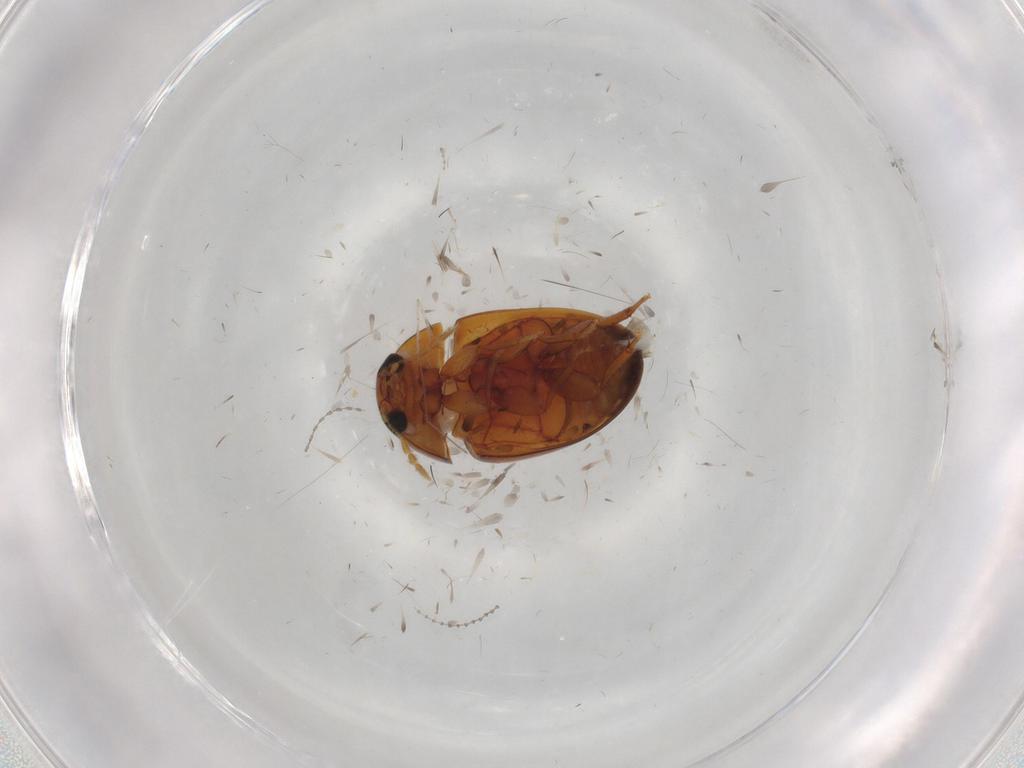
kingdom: Animalia
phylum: Arthropoda
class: Insecta
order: Coleoptera
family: Phalacridae
